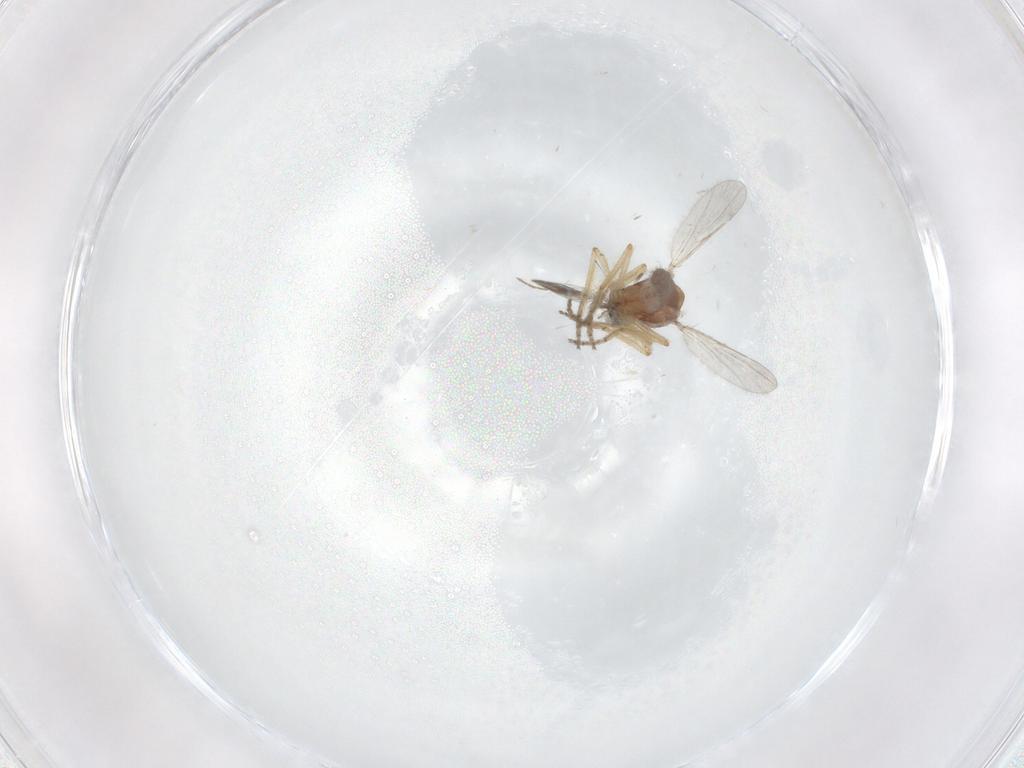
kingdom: Animalia
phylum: Arthropoda
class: Insecta
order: Diptera
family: Ceratopogonidae
